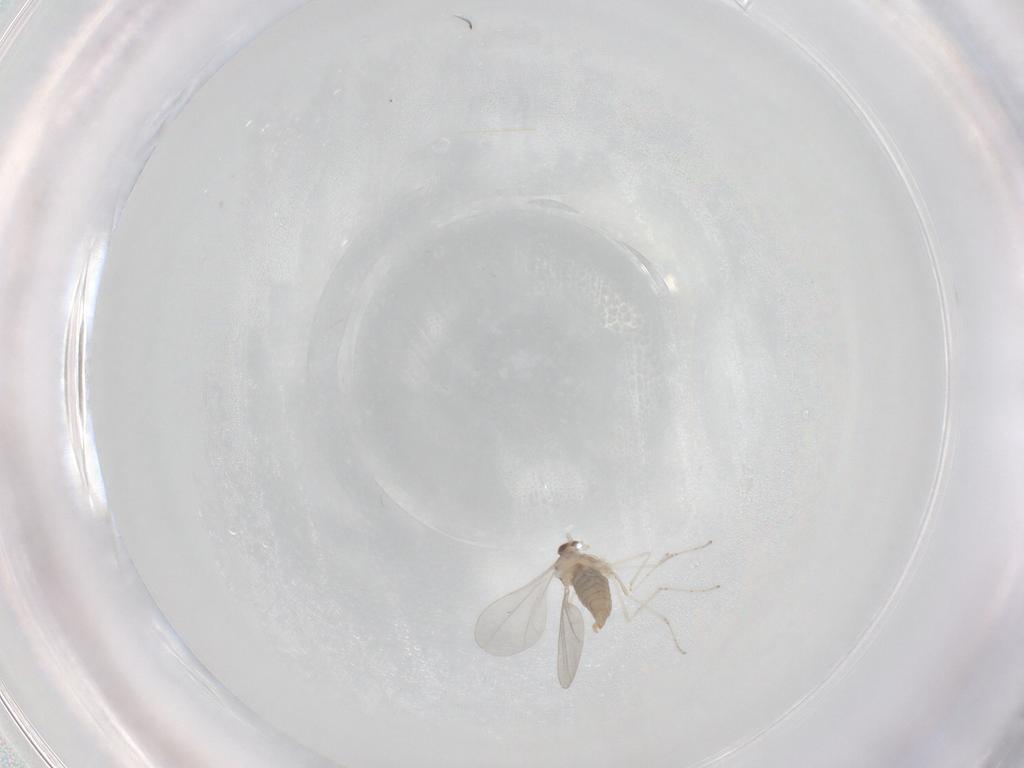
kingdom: Animalia
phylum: Arthropoda
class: Insecta
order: Diptera
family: Cecidomyiidae
